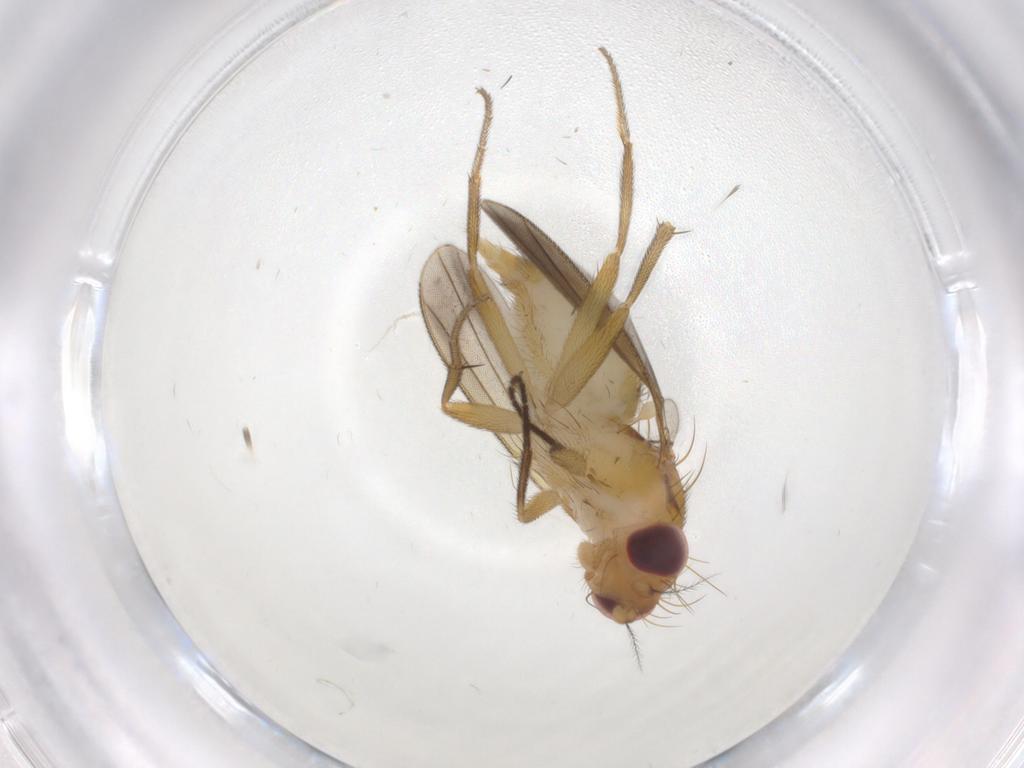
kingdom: Animalia
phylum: Arthropoda
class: Insecta
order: Diptera
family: Clusiidae
